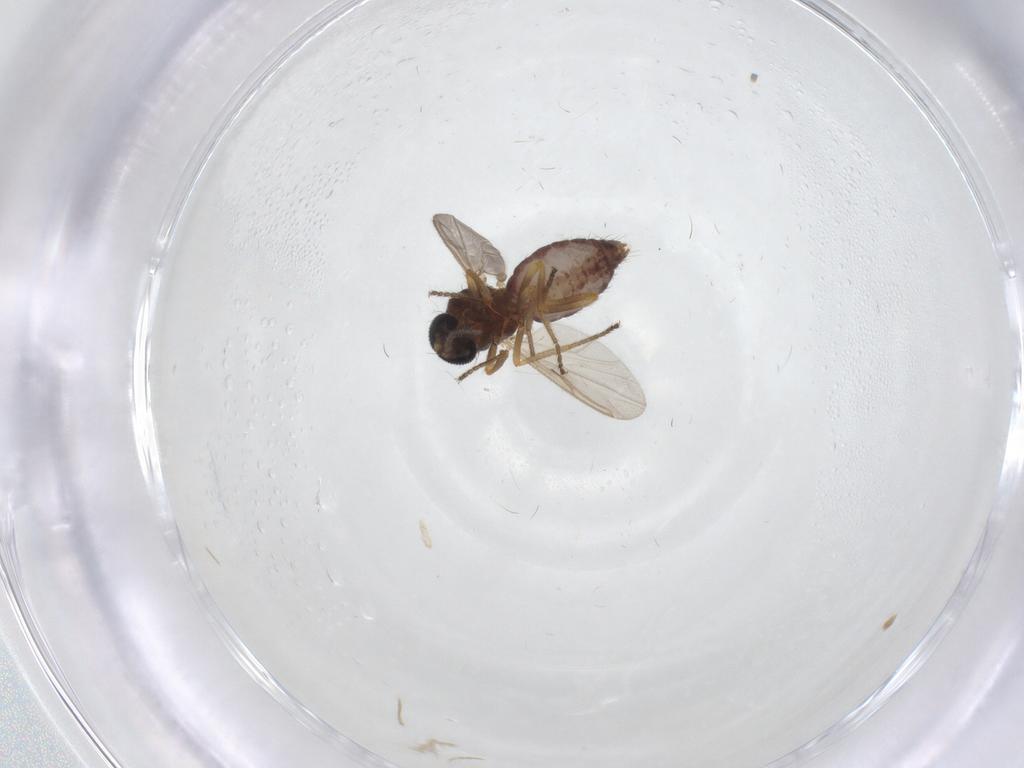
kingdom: Animalia
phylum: Arthropoda
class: Insecta
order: Diptera
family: Ceratopogonidae
